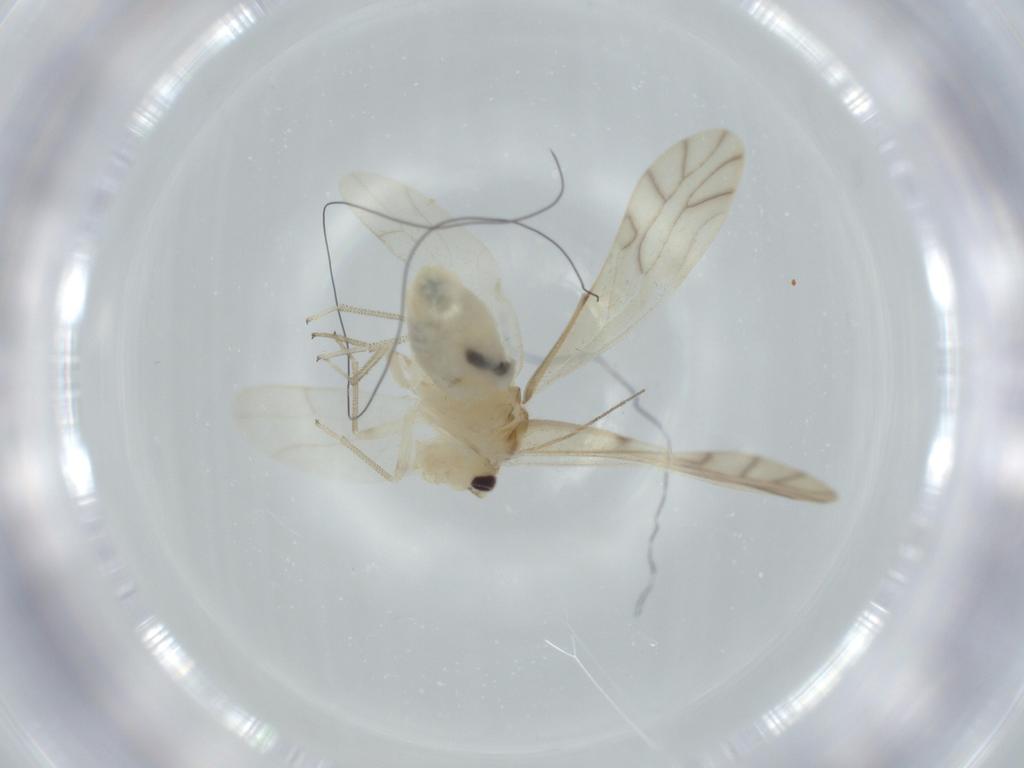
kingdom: Animalia
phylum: Arthropoda
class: Insecta
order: Psocodea
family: Caeciliusidae
